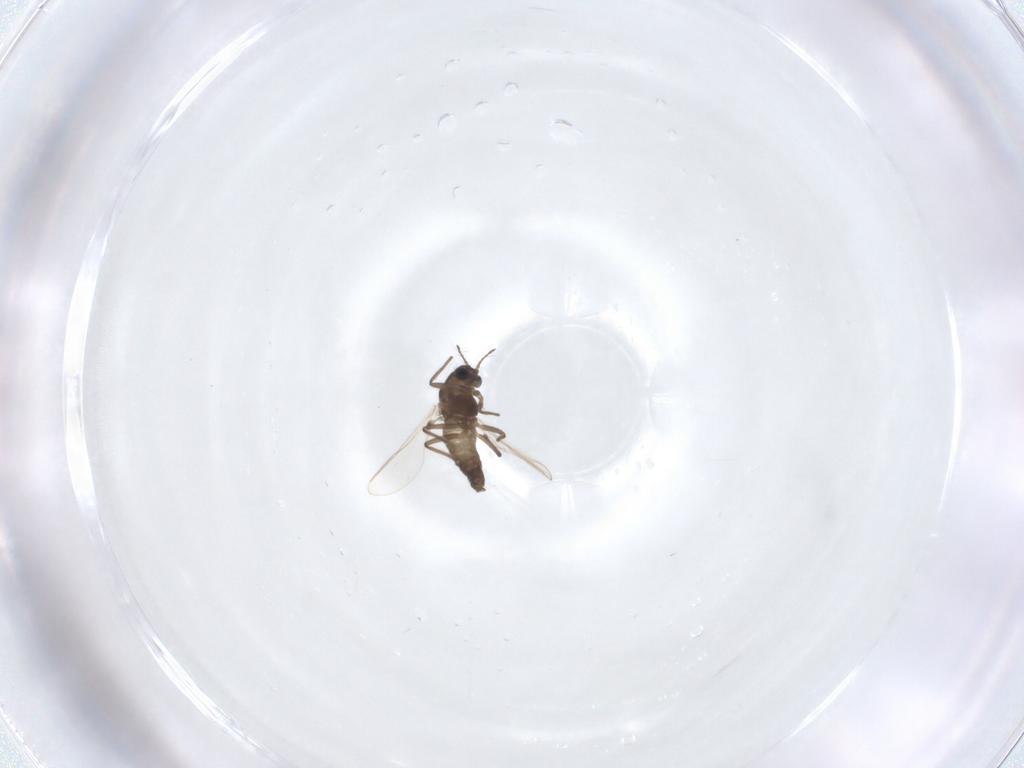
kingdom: Animalia
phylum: Arthropoda
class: Insecta
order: Diptera
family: Chironomidae
